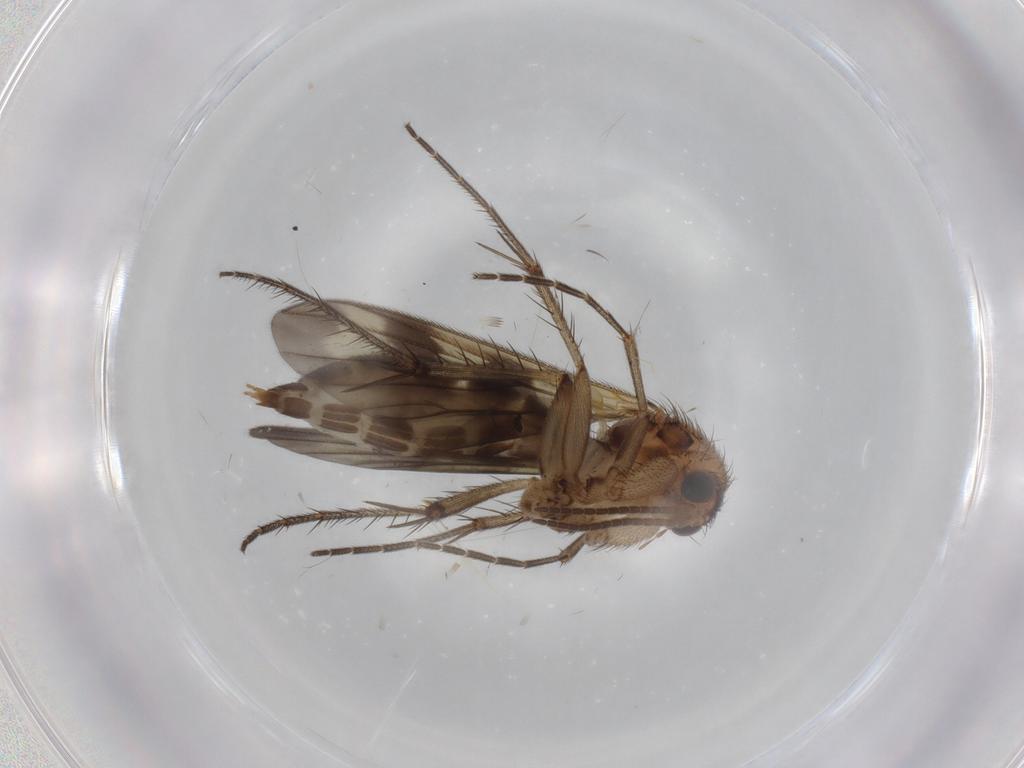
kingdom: Animalia
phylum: Arthropoda
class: Insecta
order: Diptera
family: Mycetophilidae
